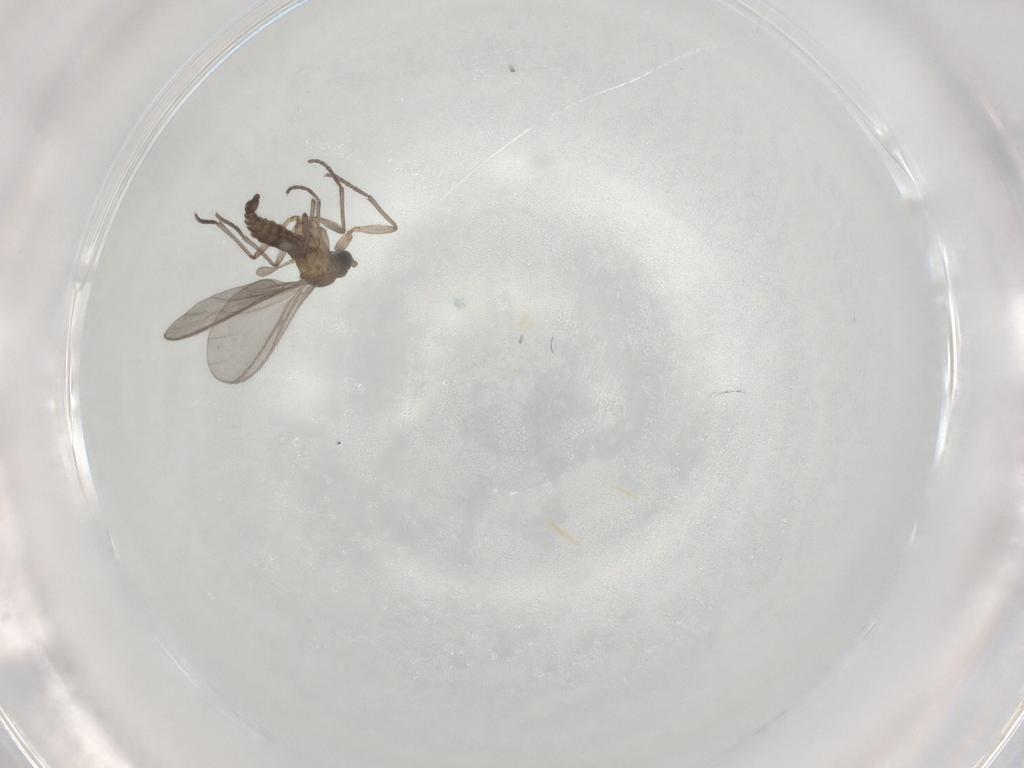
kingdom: Animalia
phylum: Arthropoda
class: Insecta
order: Diptera
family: Sciaridae
